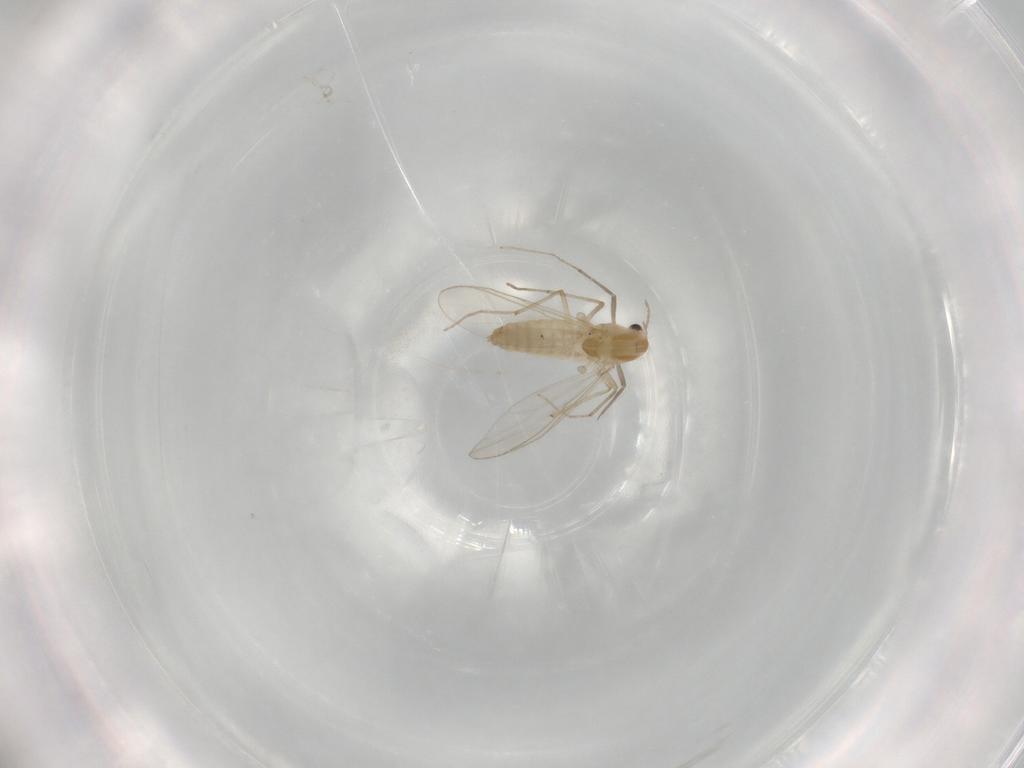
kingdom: Animalia
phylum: Arthropoda
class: Insecta
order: Diptera
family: Chironomidae
